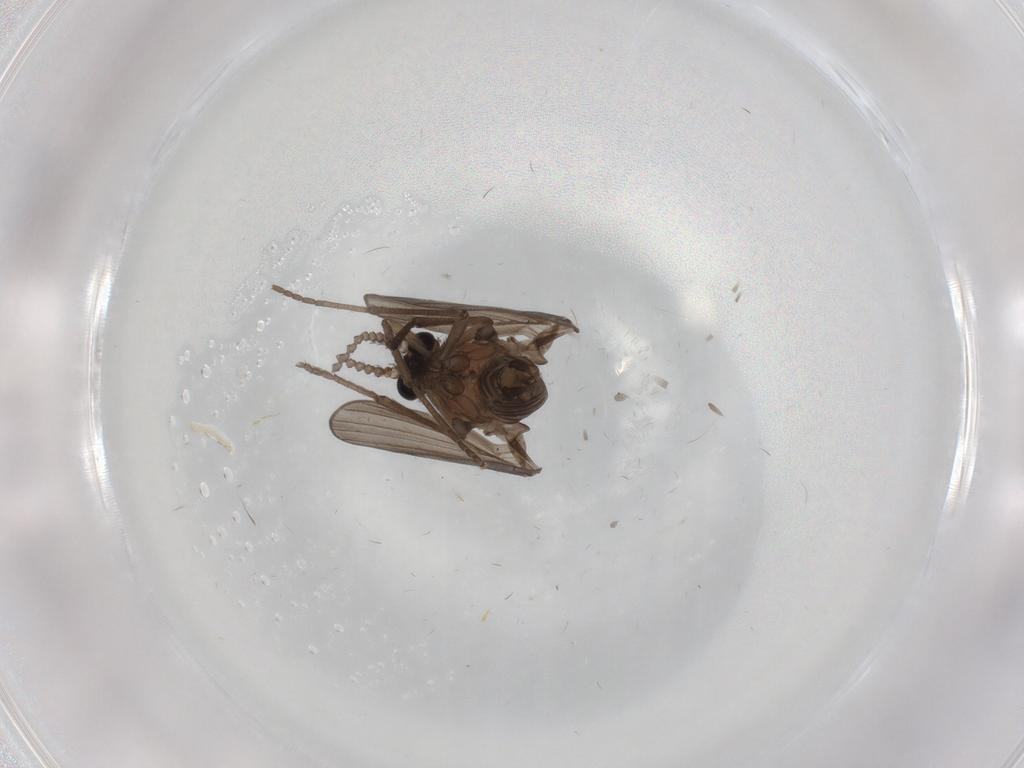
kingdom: Animalia
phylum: Arthropoda
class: Insecta
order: Diptera
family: Psychodidae
